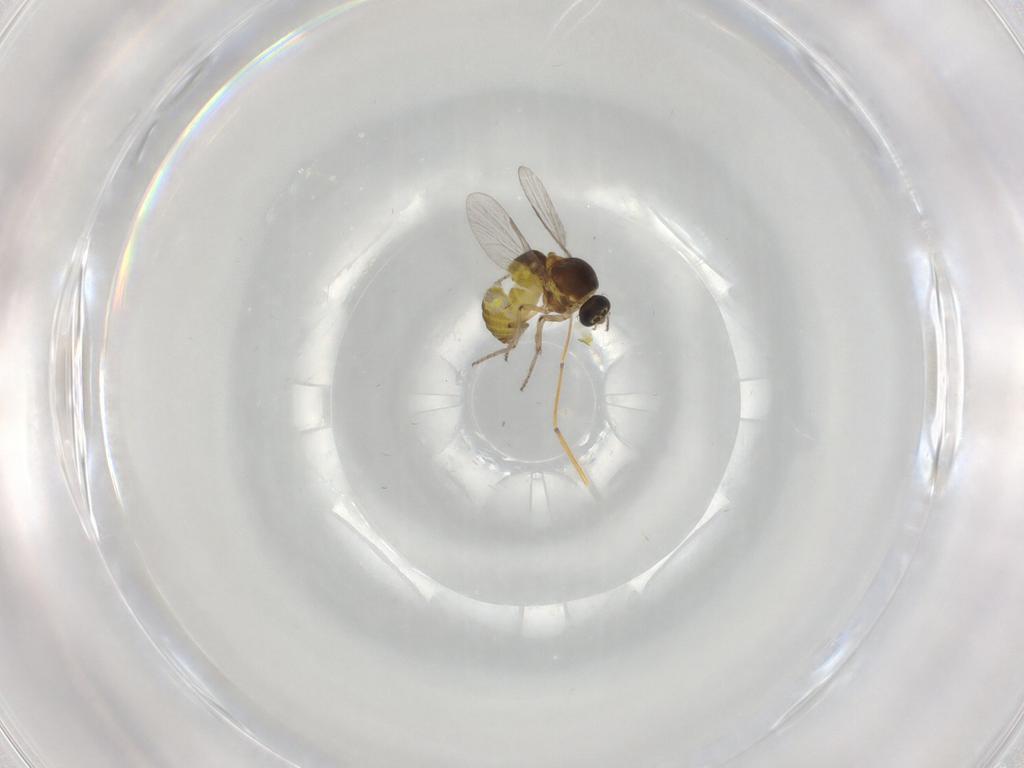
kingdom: Animalia
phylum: Arthropoda
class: Insecta
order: Diptera
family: Ceratopogonidae
